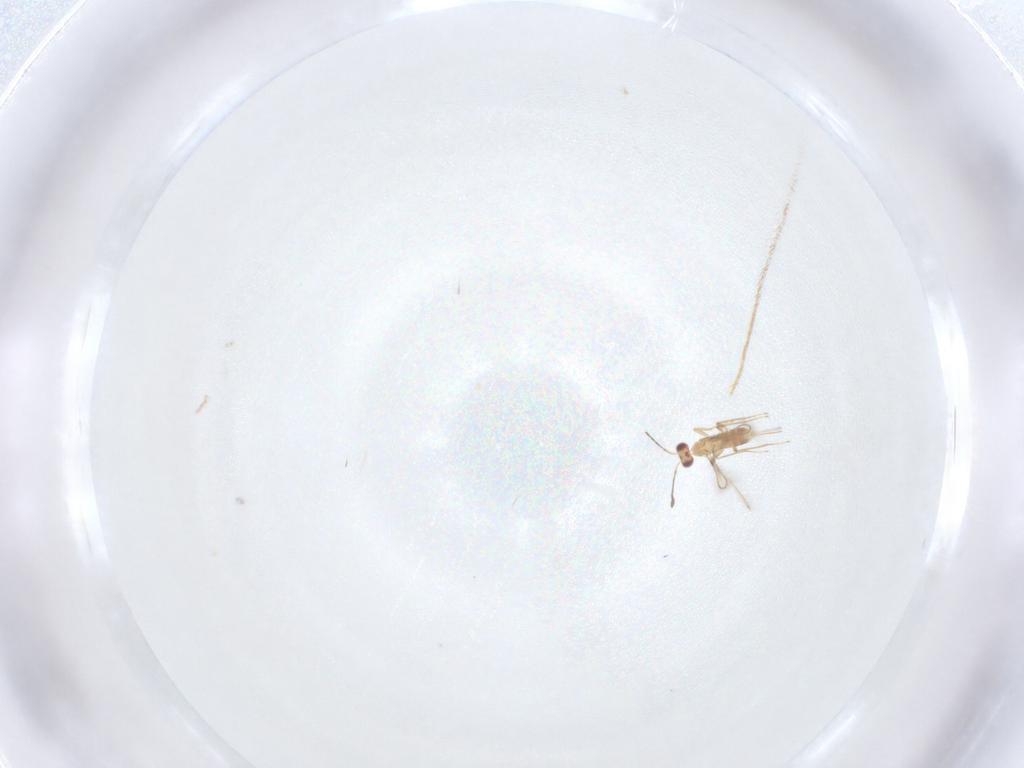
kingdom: Animalia
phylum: Arthropoda
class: Insecta
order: Hymenoptera
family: Mymaridae
